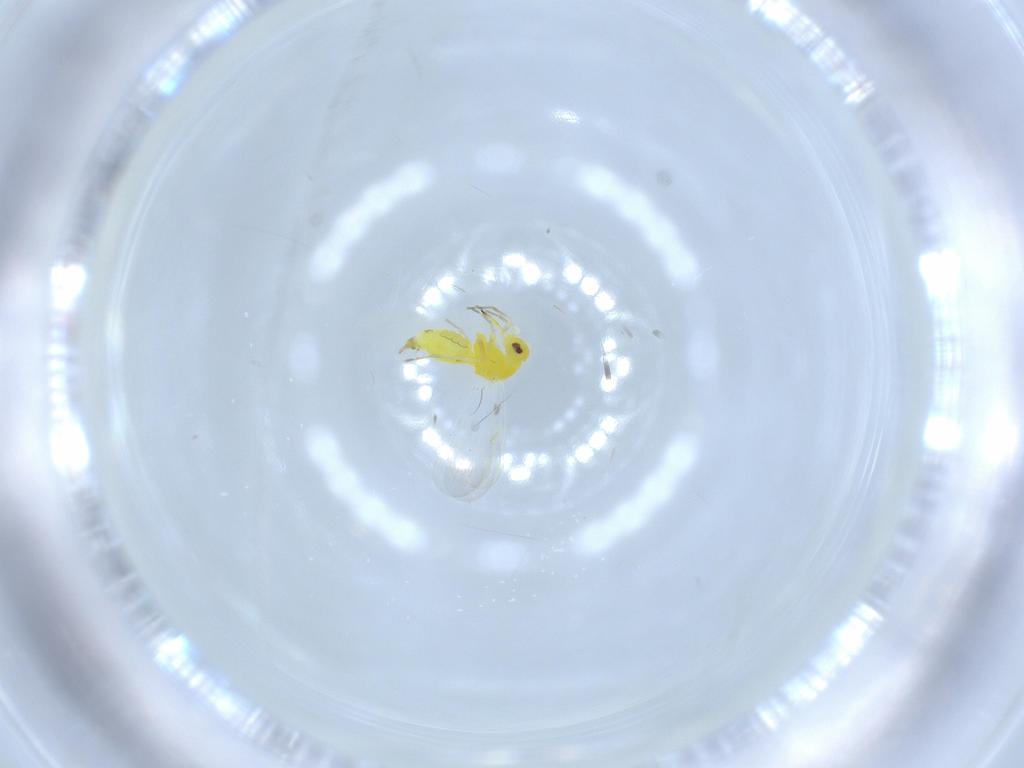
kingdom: Animalia
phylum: Arthropoda
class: Insecta
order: Hemiptera
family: Aleyrodidae
